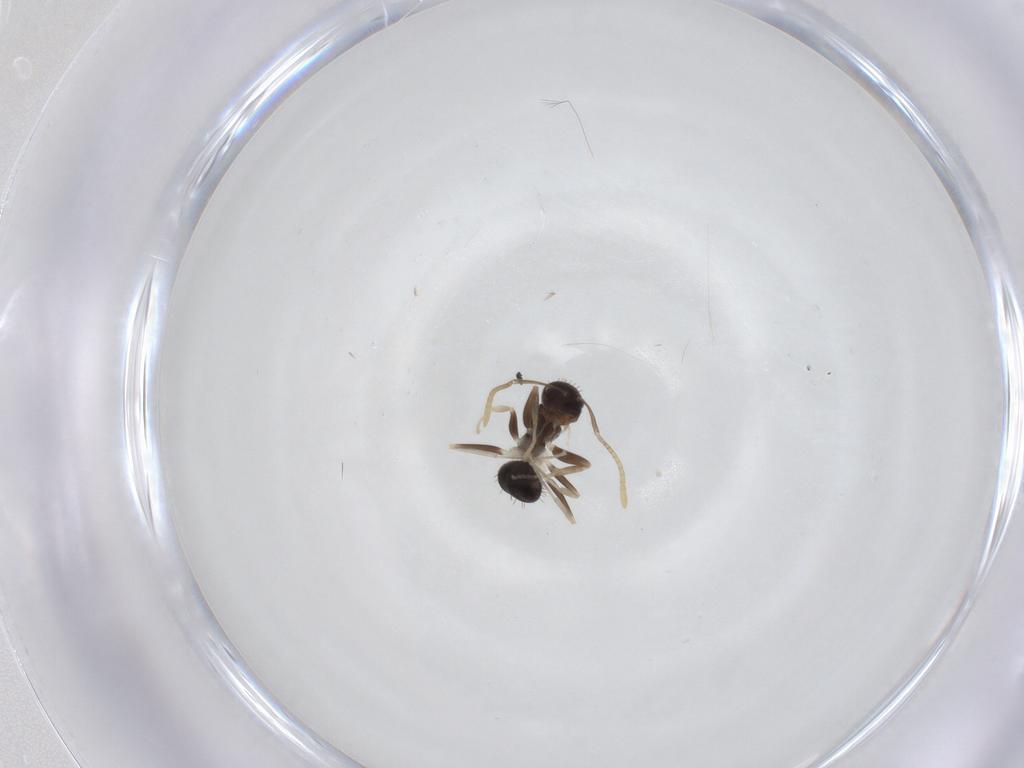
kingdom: Animalia
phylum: Arthropoda
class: Insecta
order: Hymenoptera
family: Formicidae
